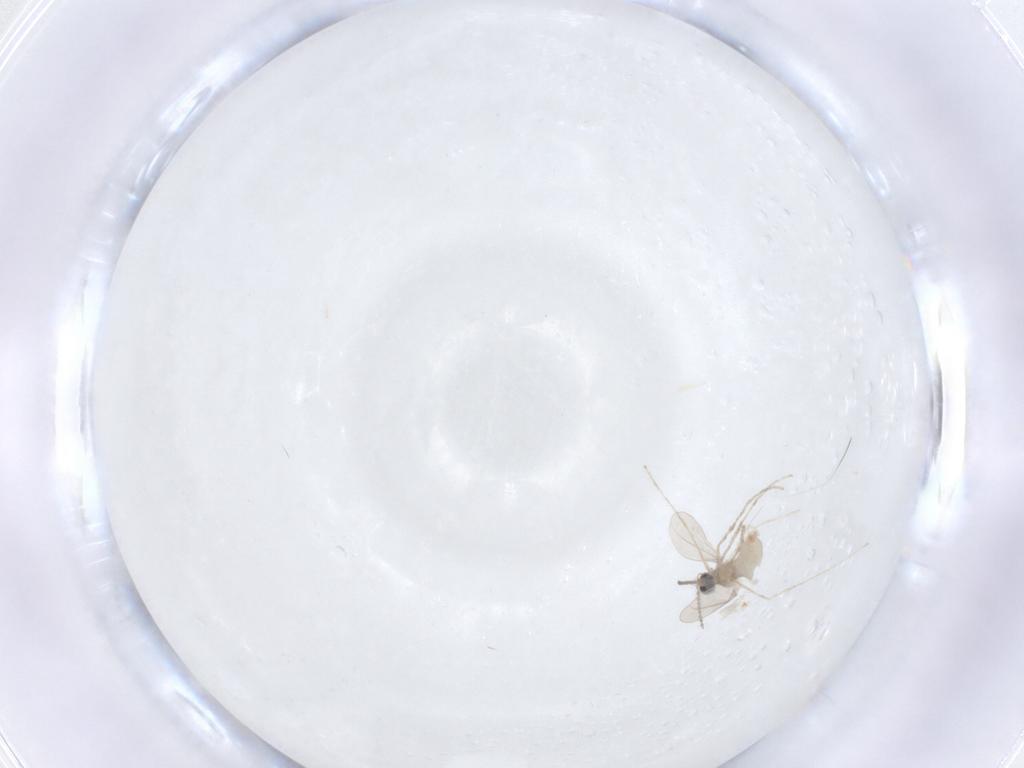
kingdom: Animalia
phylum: Arthropoda
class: Insecta
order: Diptera
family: Cecidomyiidae
